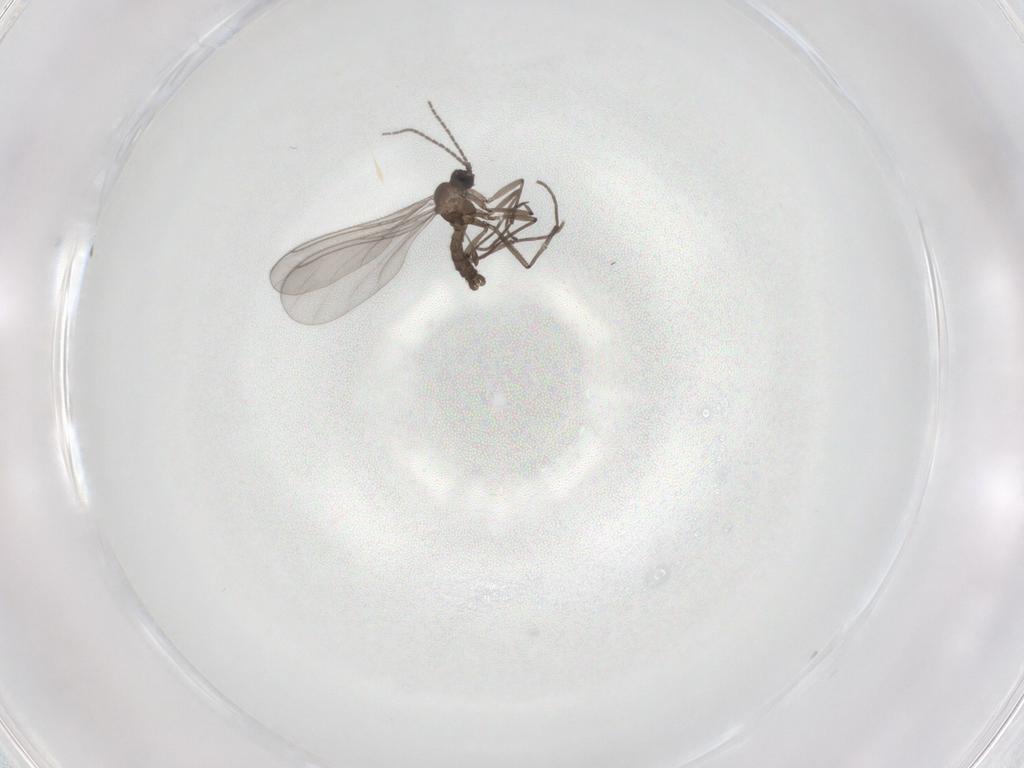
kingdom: Animalia
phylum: Arthropoda
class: Insecta
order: Diptera
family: Sciaridae
